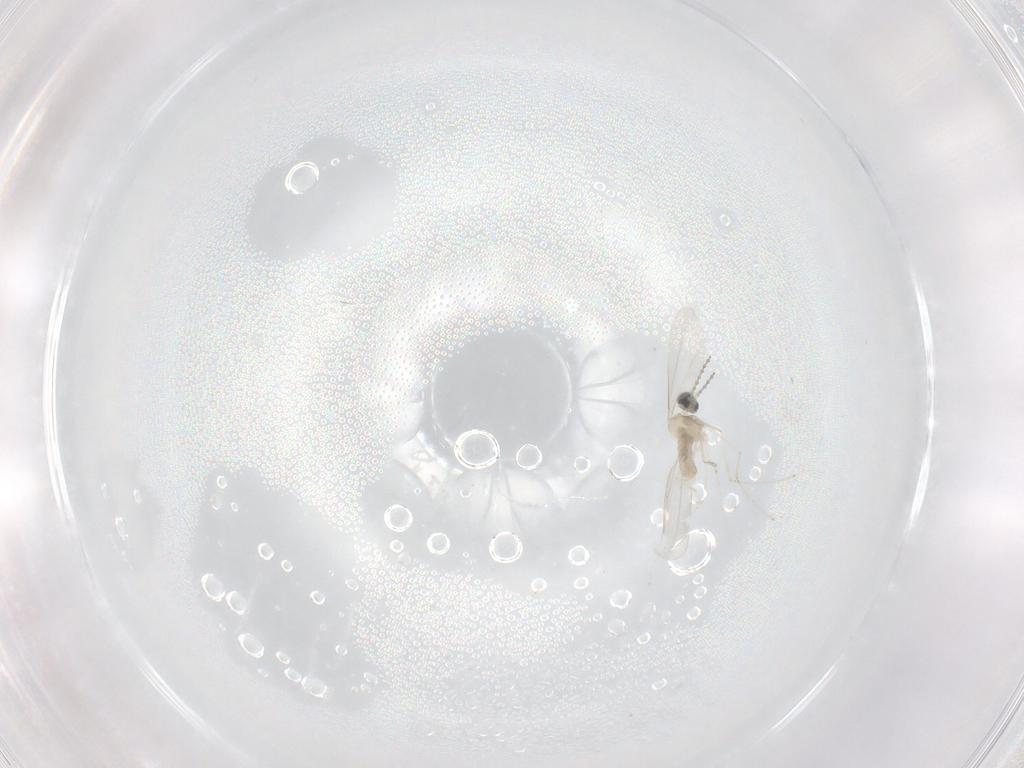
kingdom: Animalia
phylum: Arthropoda
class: Insecta
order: Diptera
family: Cecidomyiidae
